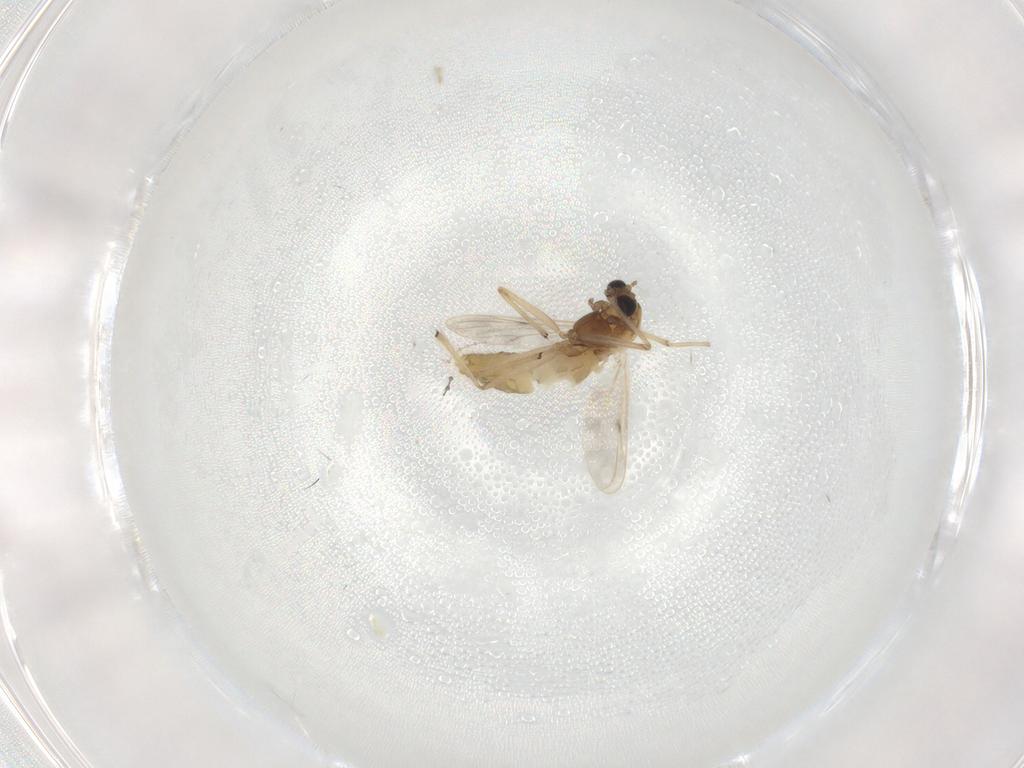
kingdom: Animalia
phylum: Arthropoda
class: Insecta
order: Diptera
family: Chironomidae
